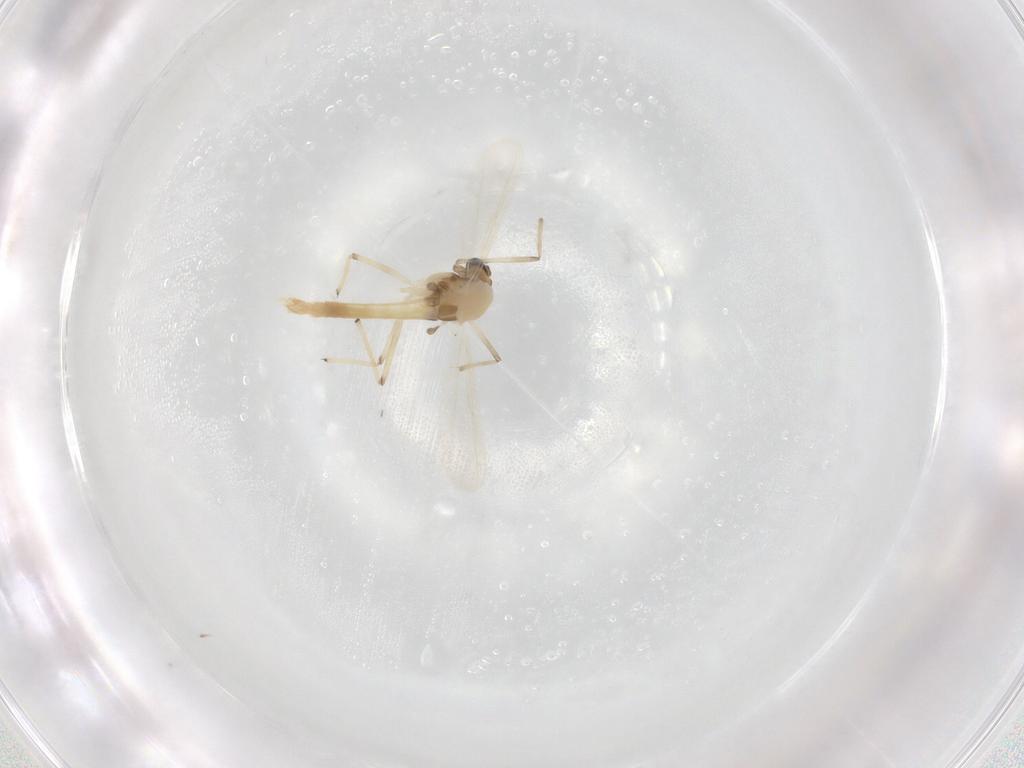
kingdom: Animalia
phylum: Arthropoda
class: Insecta
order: Diptera
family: Chironomidae
